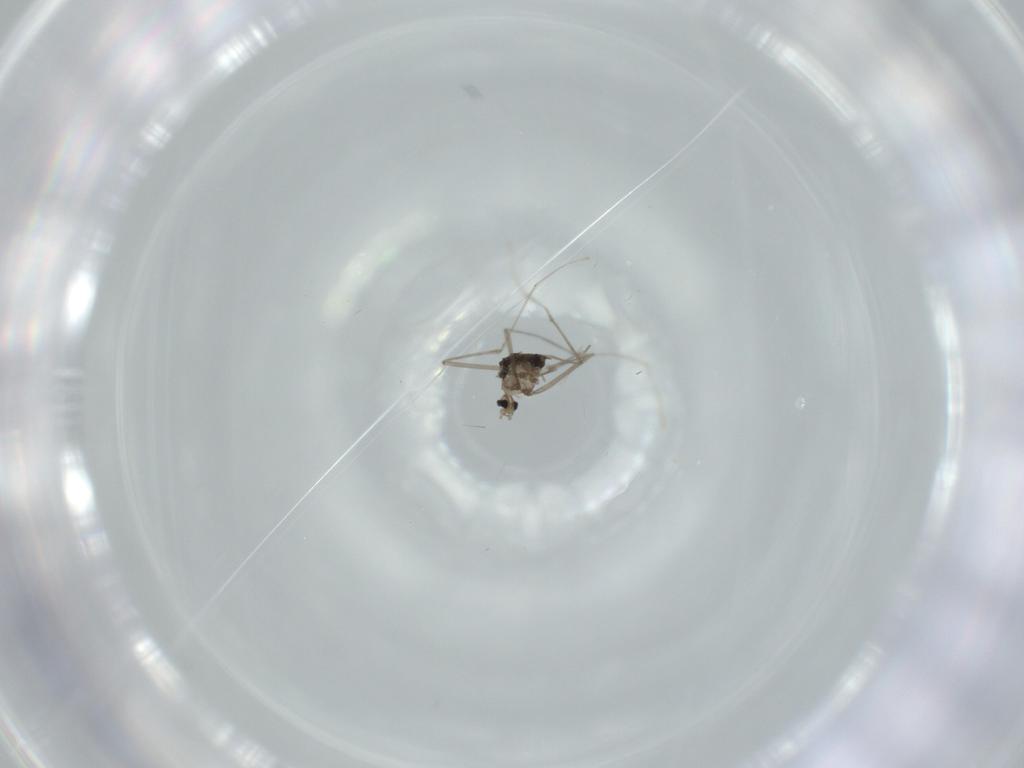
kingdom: Animalia
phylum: Arthropoda
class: Insecta
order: Diptera
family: Cecidomyiidae
